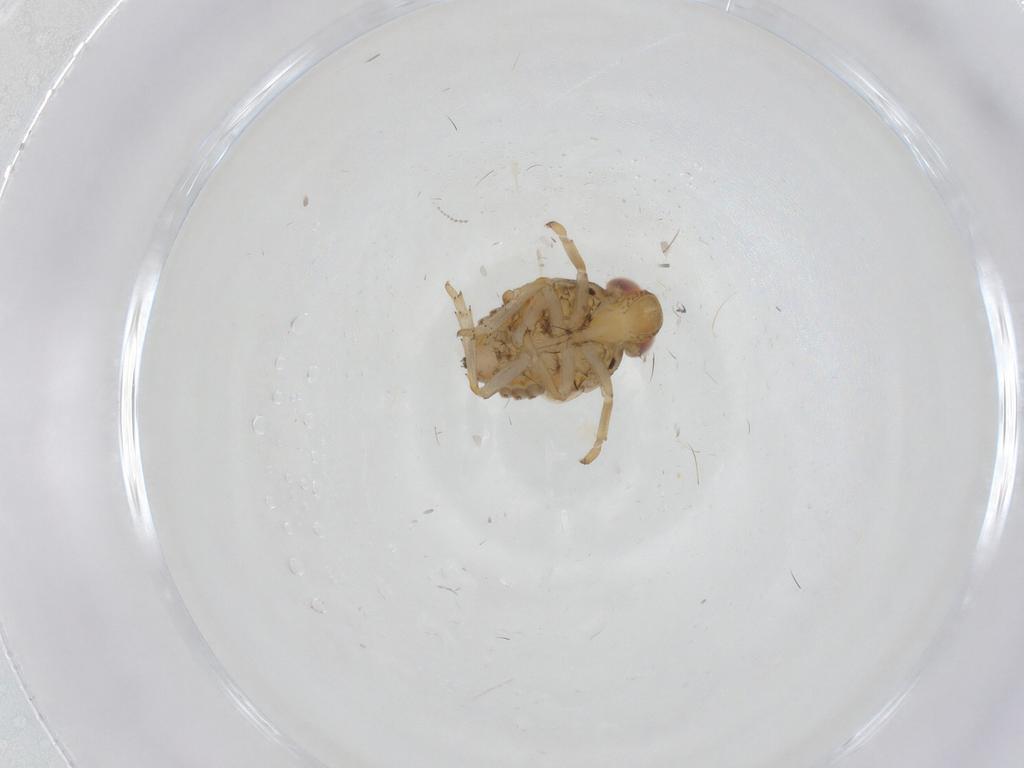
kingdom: Animalia
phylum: Arthropoda
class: Insecta
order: Hemiptera
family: Issidae
